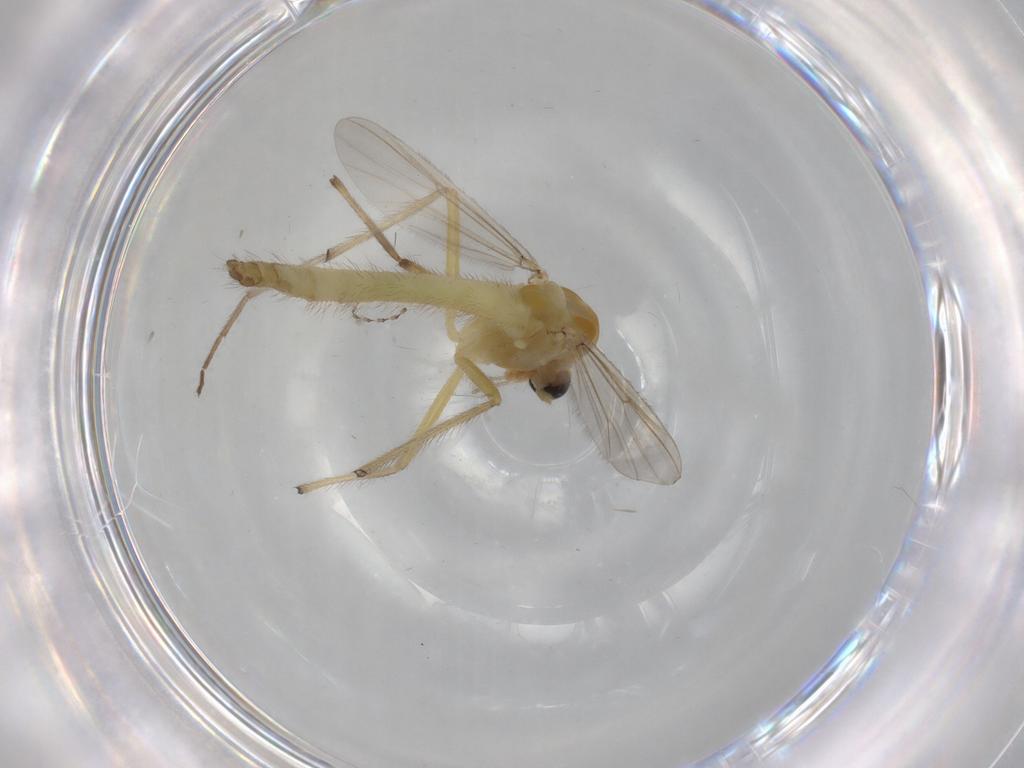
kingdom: Animalia
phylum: Arthropoda
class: Insecta
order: Diptera
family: Chironomidae
